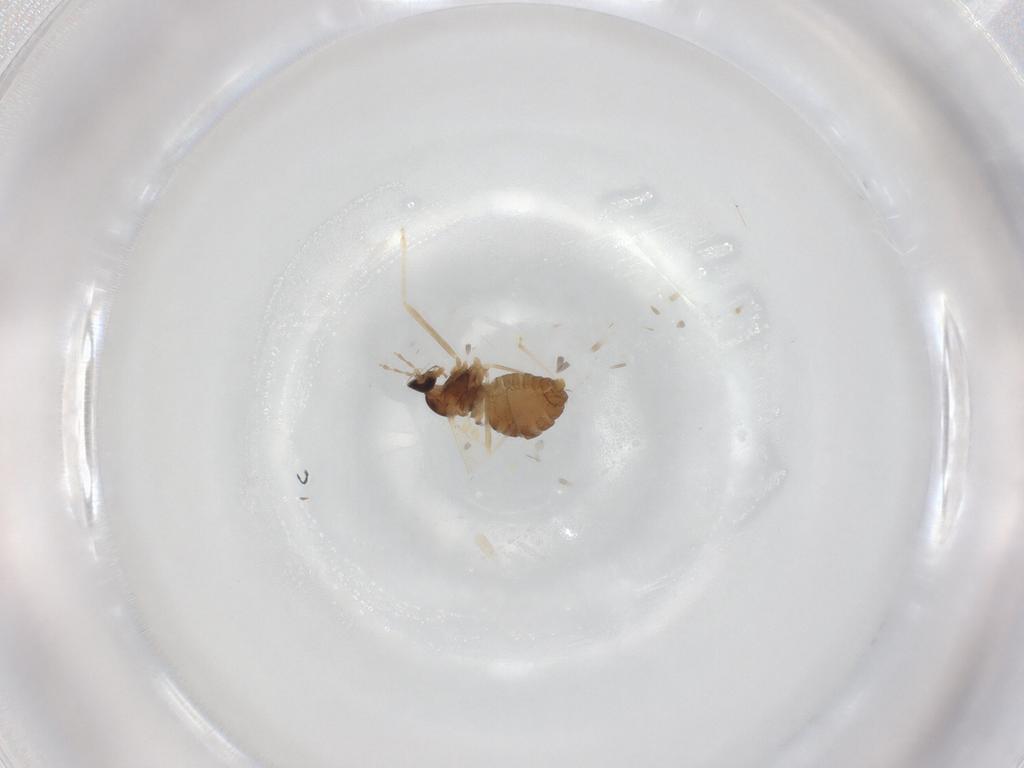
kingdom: Animalia
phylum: Arthropoda
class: Insecta
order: Diptera
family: Cecidomyiidae
